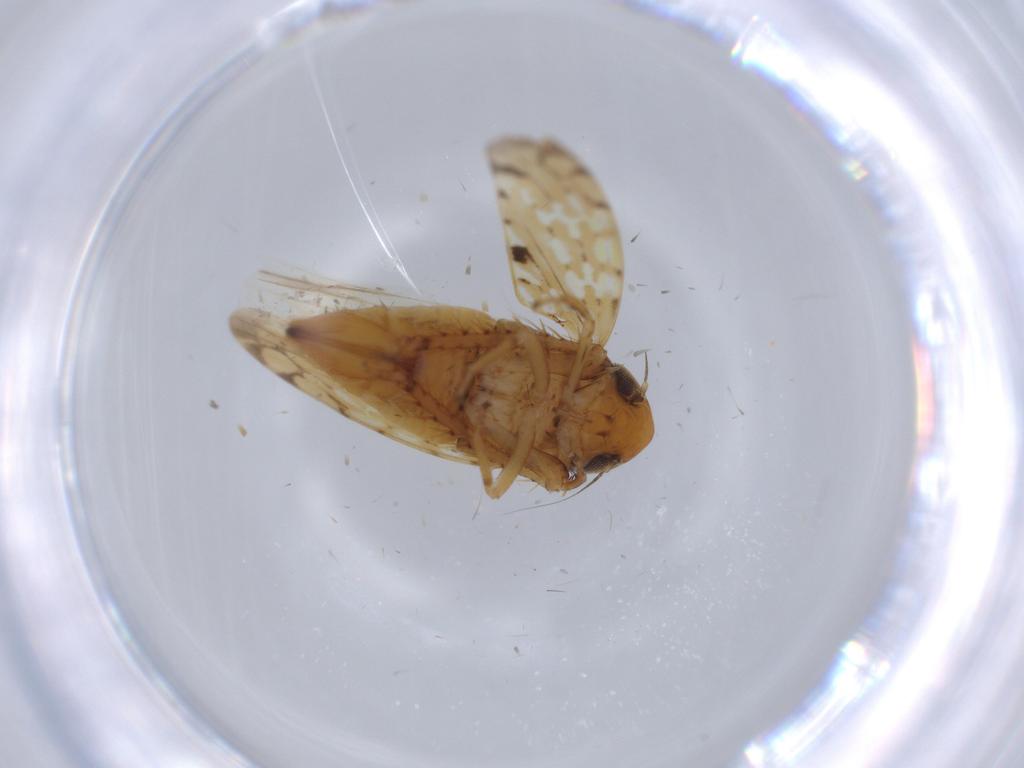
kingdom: Animalia
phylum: Arthropoda
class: Insecta
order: Hemiptera
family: Cicadellidae
